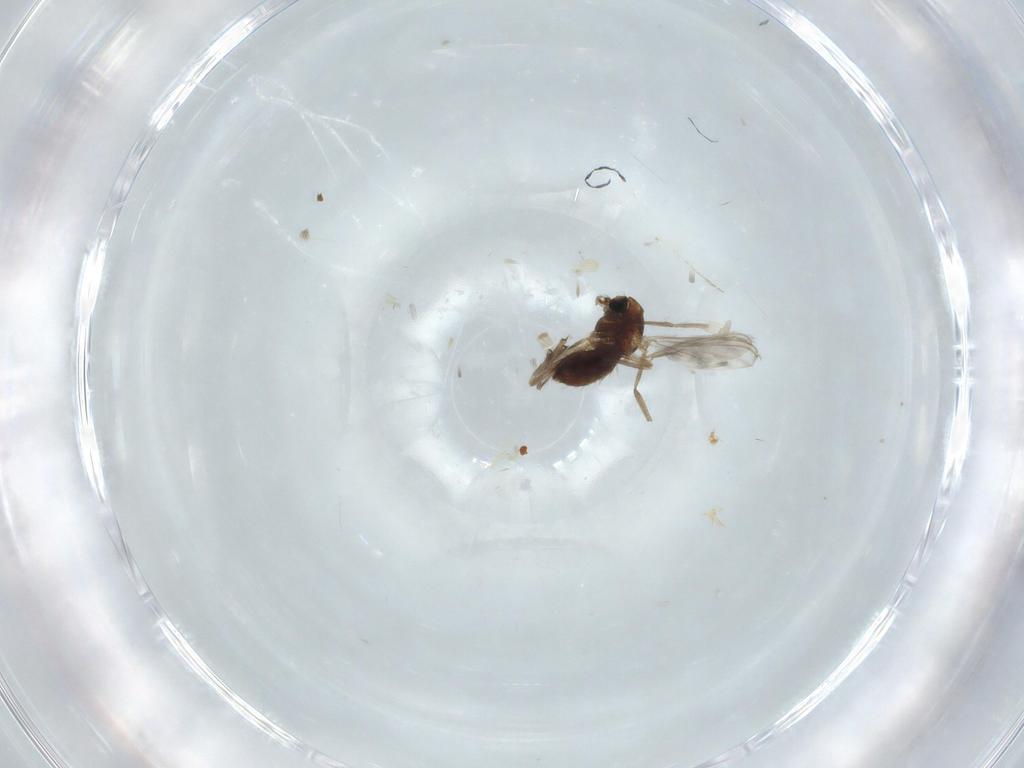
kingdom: Animalia
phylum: Arthropoda
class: Insecta
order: Diptera
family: Chironomidae
